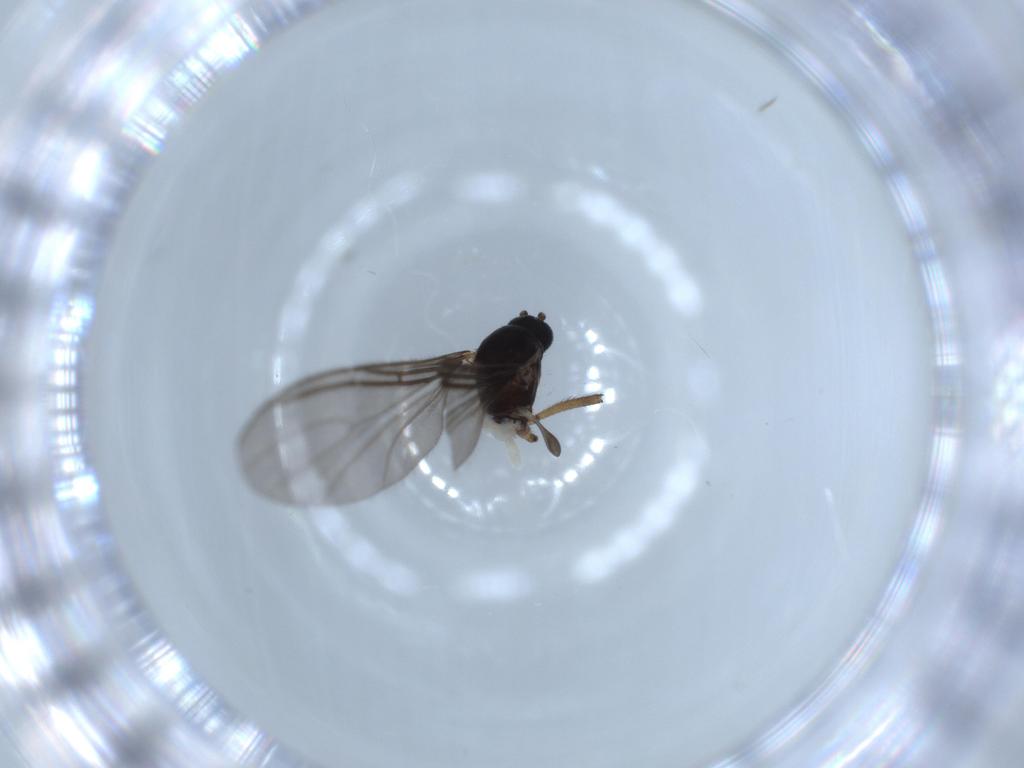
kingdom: Animalia
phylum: Arthropoda
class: Insecta
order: Diptera
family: Sciaridae
